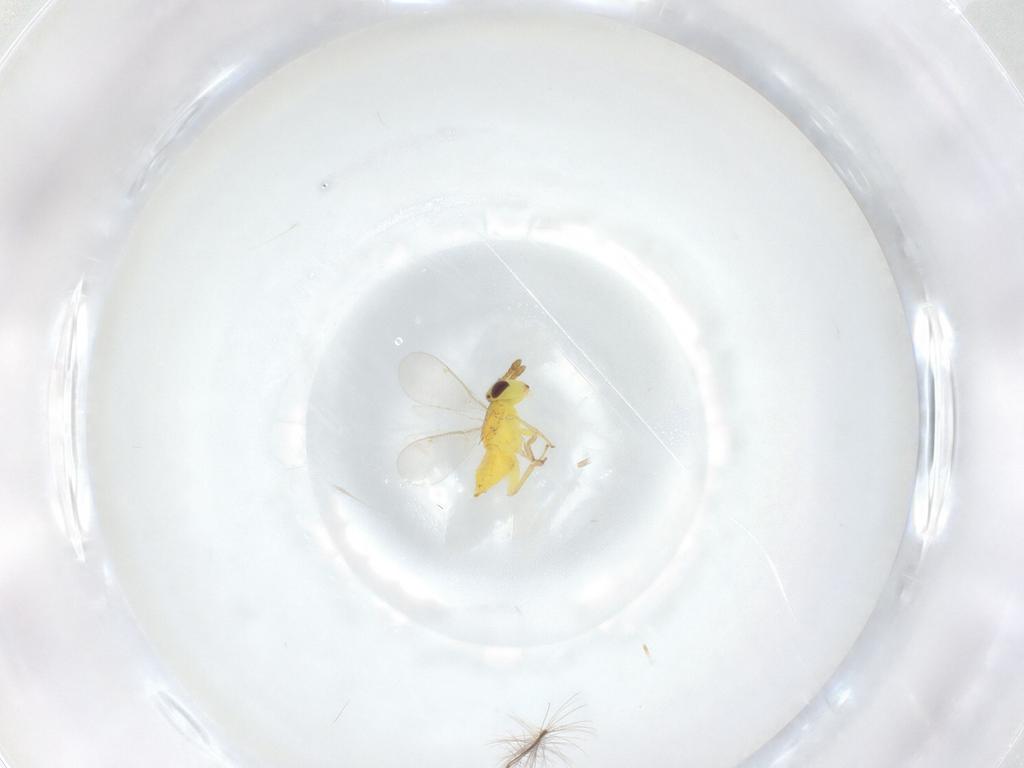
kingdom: Animalia
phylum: Arthropoda
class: Insecta
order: Hymenoptera
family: Aphelinidae
